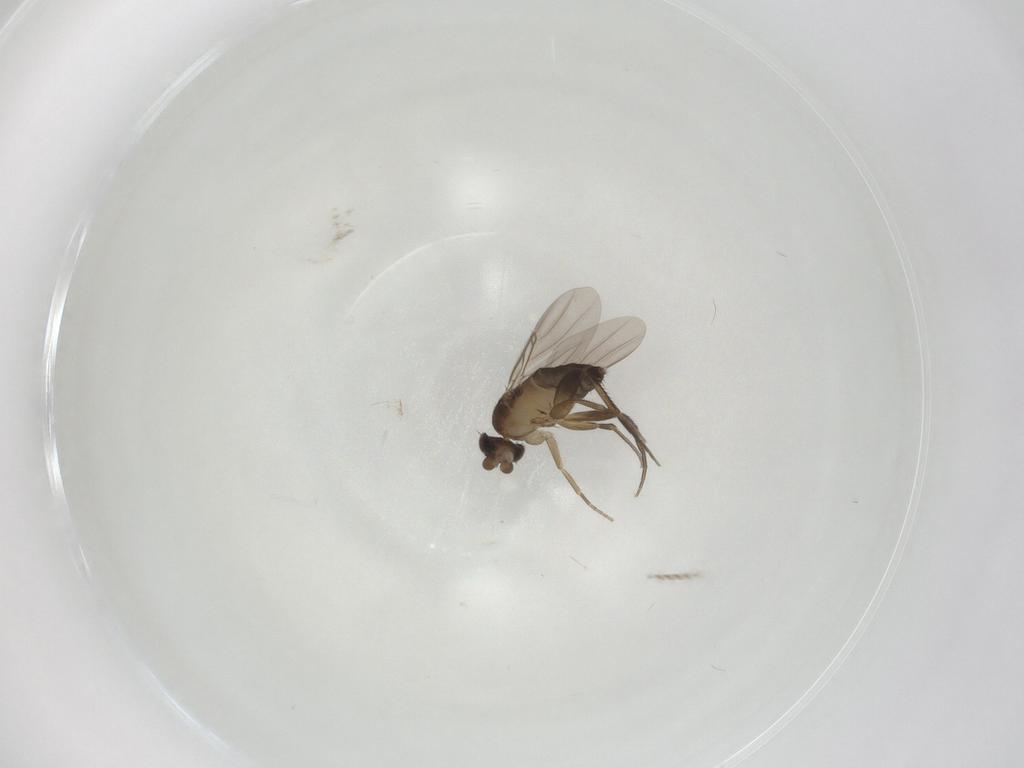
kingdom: Animalia
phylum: Arthropoda
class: Insecta
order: Diptera
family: Phoridae
